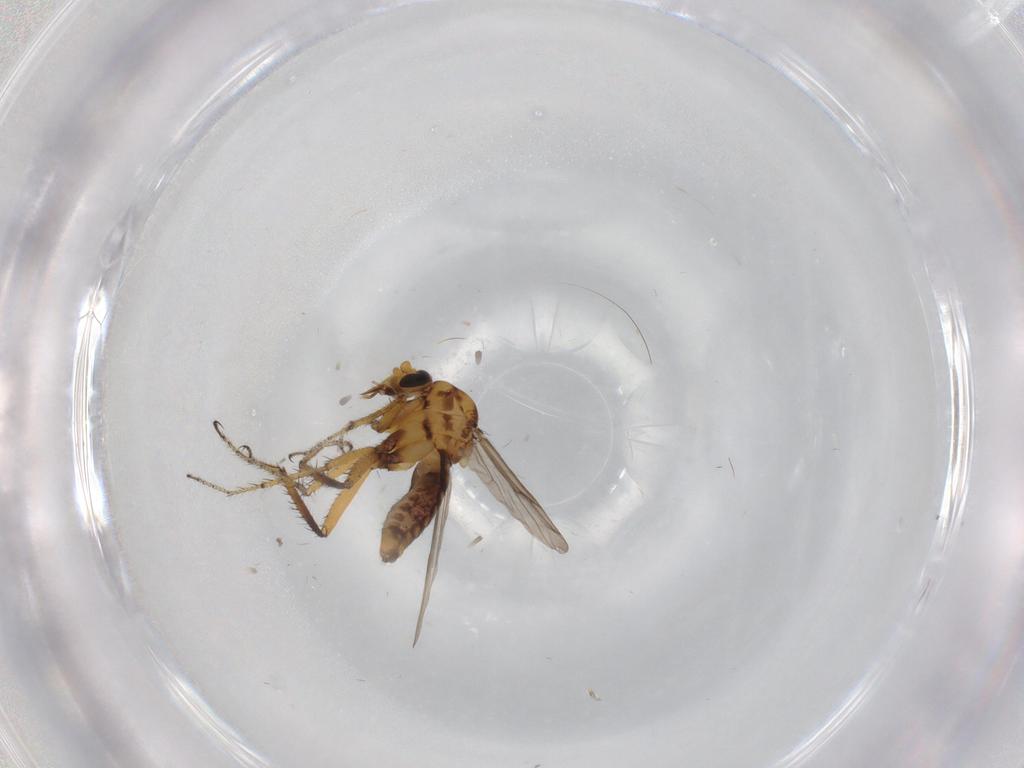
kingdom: Animalia
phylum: Arthropoda
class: Insecta
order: Diptera
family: Ceratopogonidae
